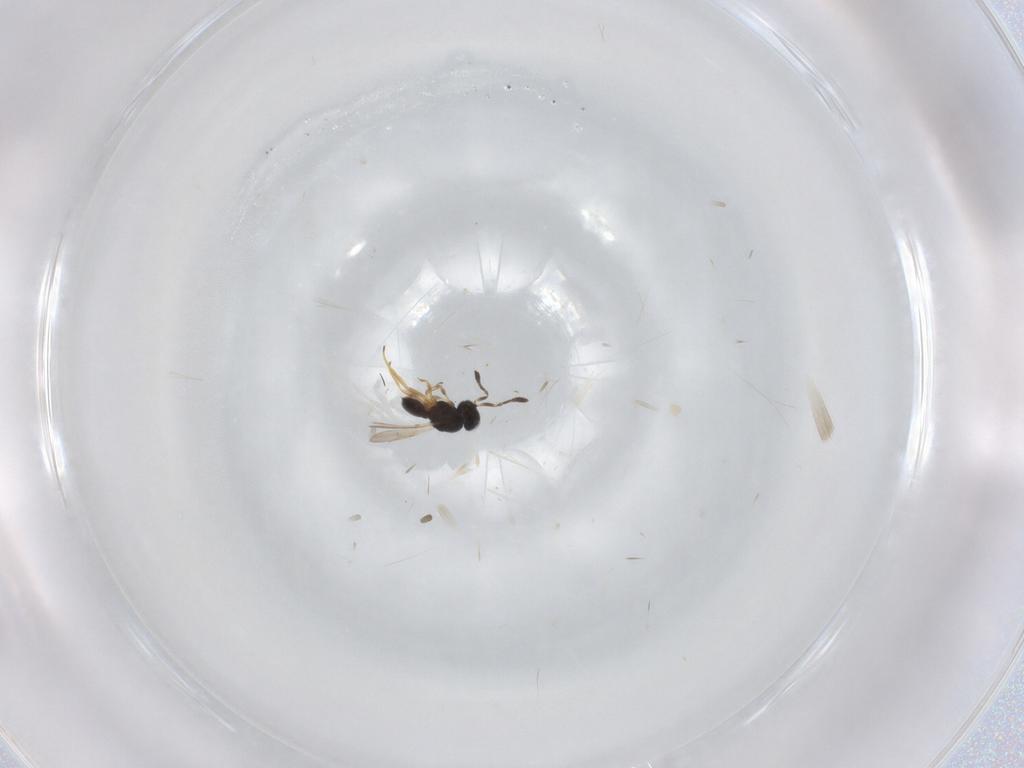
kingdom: Animalia
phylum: Arthropoda
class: Insecta
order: Hymenoptera
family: Scelionidae
